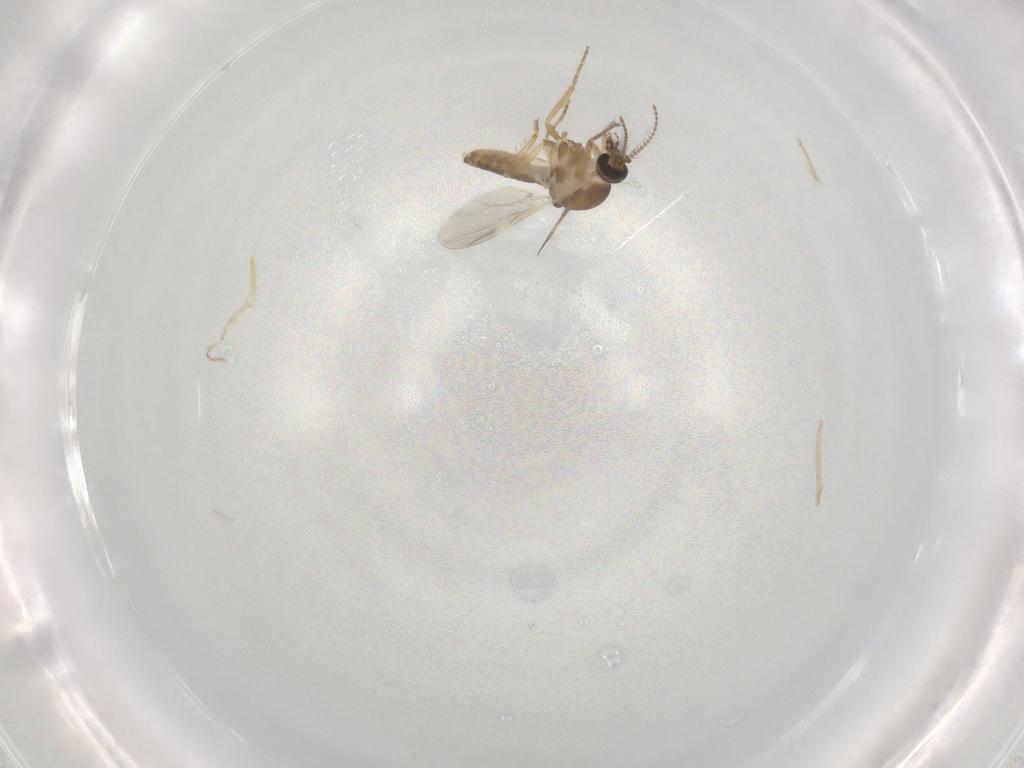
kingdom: Animalia
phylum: Arthropoda
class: Insecta
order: Diptera
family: Ceratopogonidae
